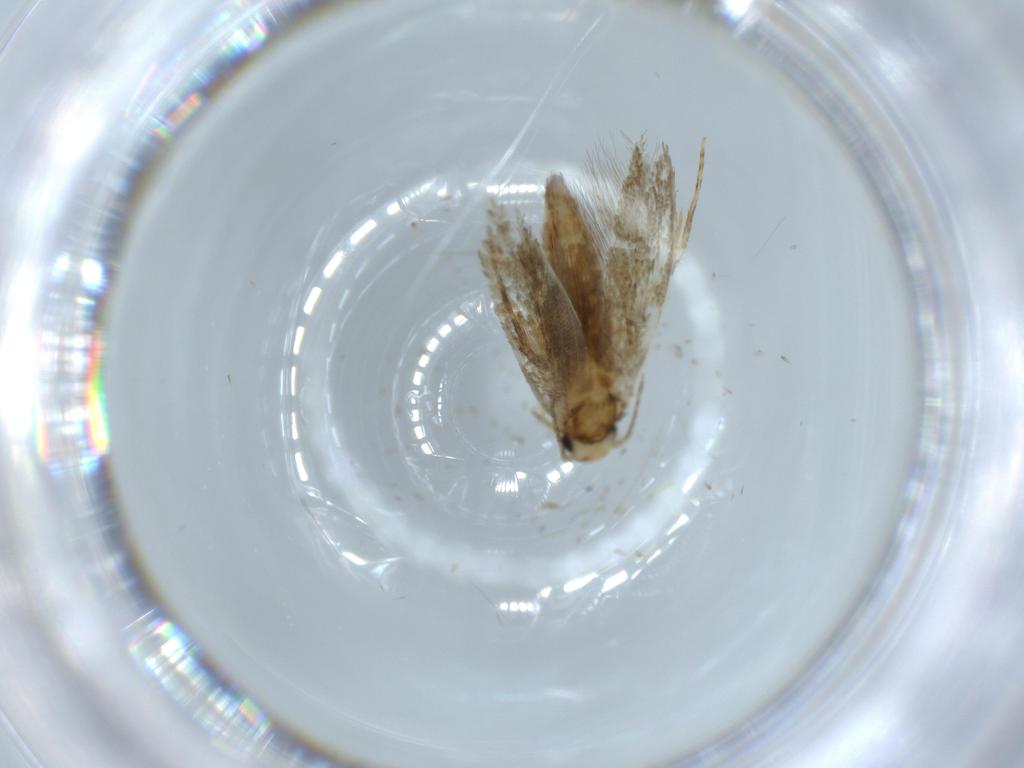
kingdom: Animalia
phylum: Arthropoda
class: Insecta
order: Lepidoptera
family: Tineidae
